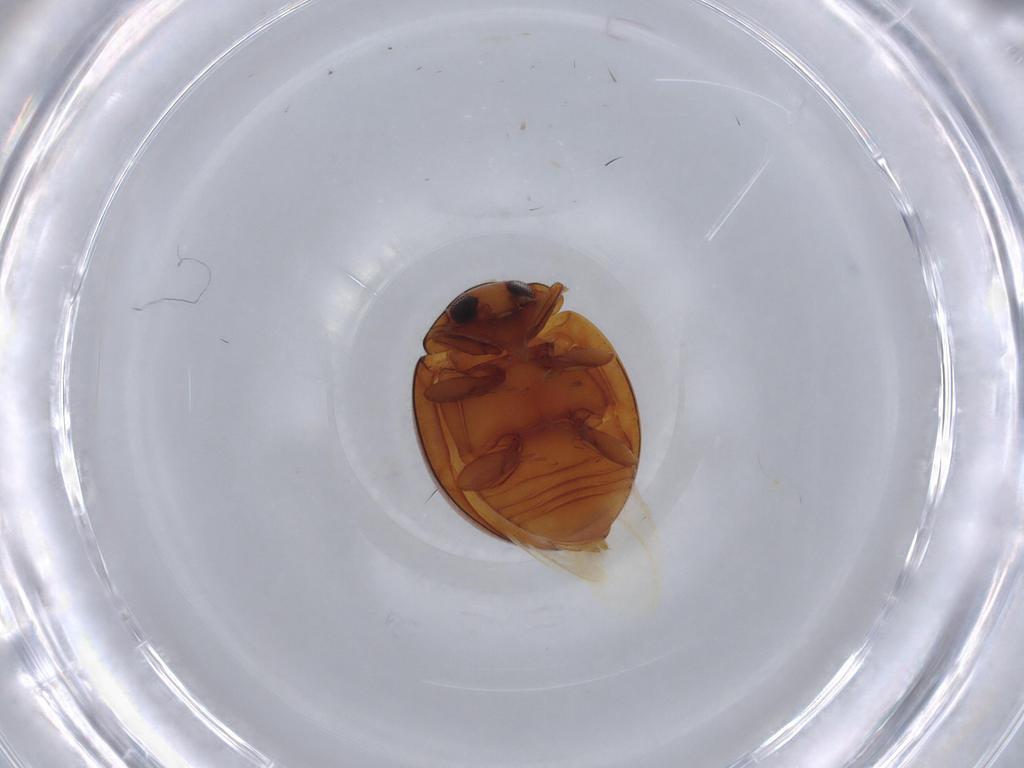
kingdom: Animalia
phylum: Arthropoda
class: Insecta
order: Coleoptera
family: Coccinellidae
